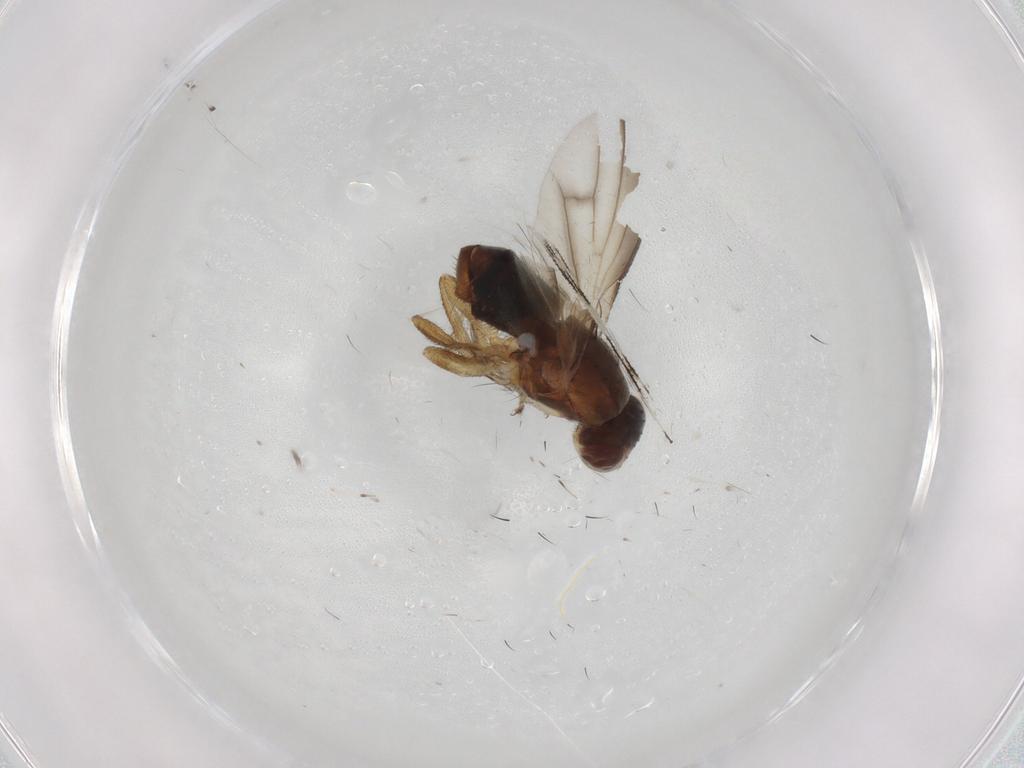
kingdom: Animalia
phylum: Arthropoda
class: Insecta
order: Diptera
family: Heleomyzidae
